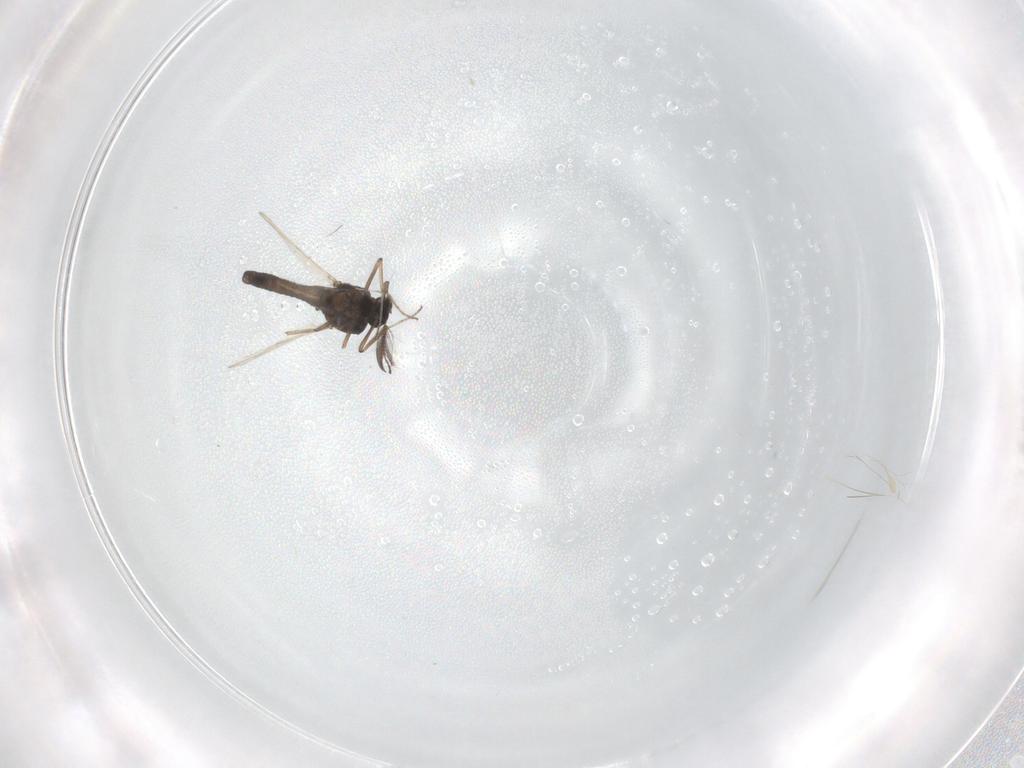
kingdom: Animalia
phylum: Arthropoda
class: Insecta
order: Diptera
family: Ceratopogonidae
